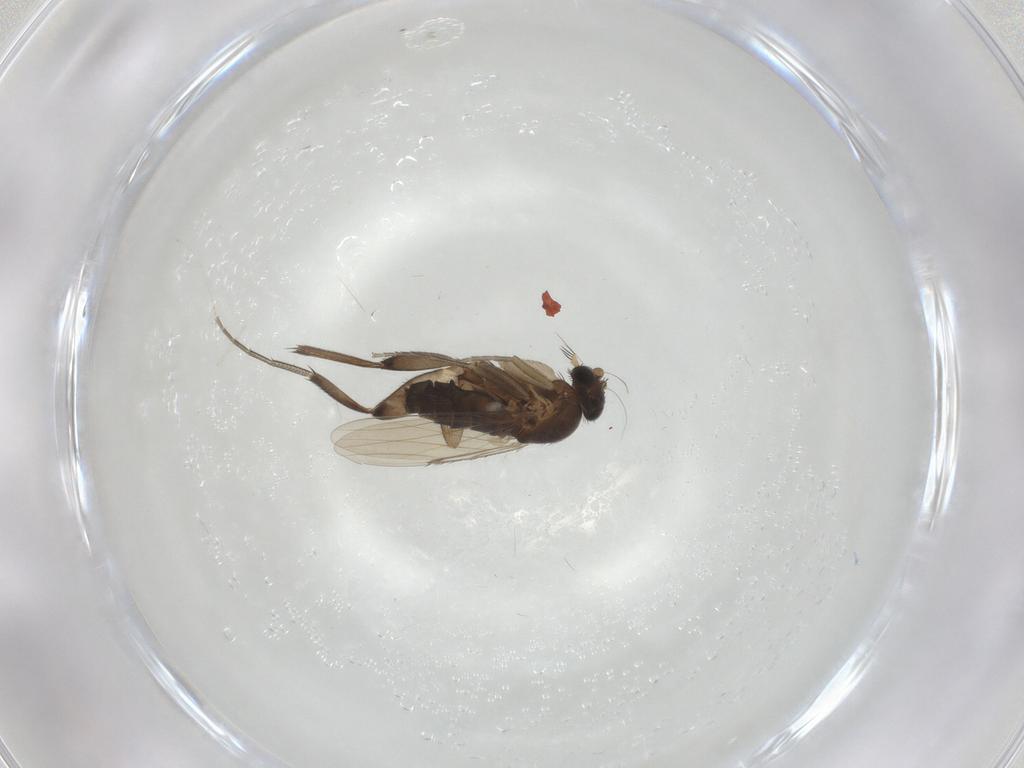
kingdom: Animalia
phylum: Arthropoda
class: Insecta
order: Diptera
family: Phoridae
